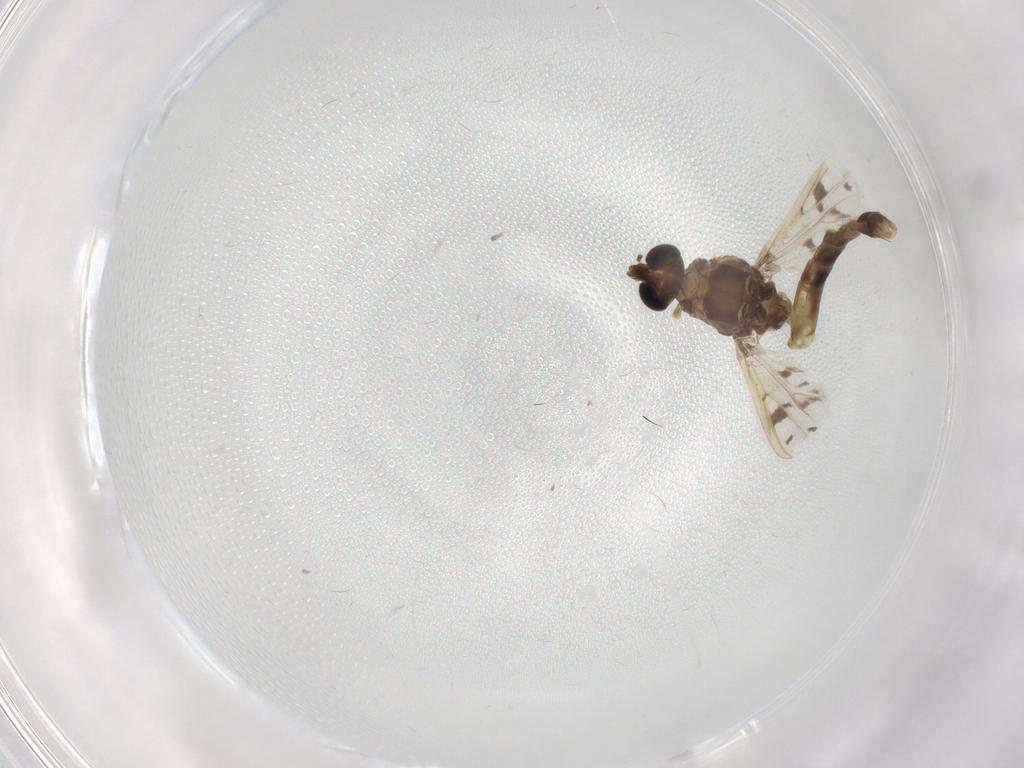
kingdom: Animalia
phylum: Arthropoda
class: Insecta
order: Diptera
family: Chironomidae
